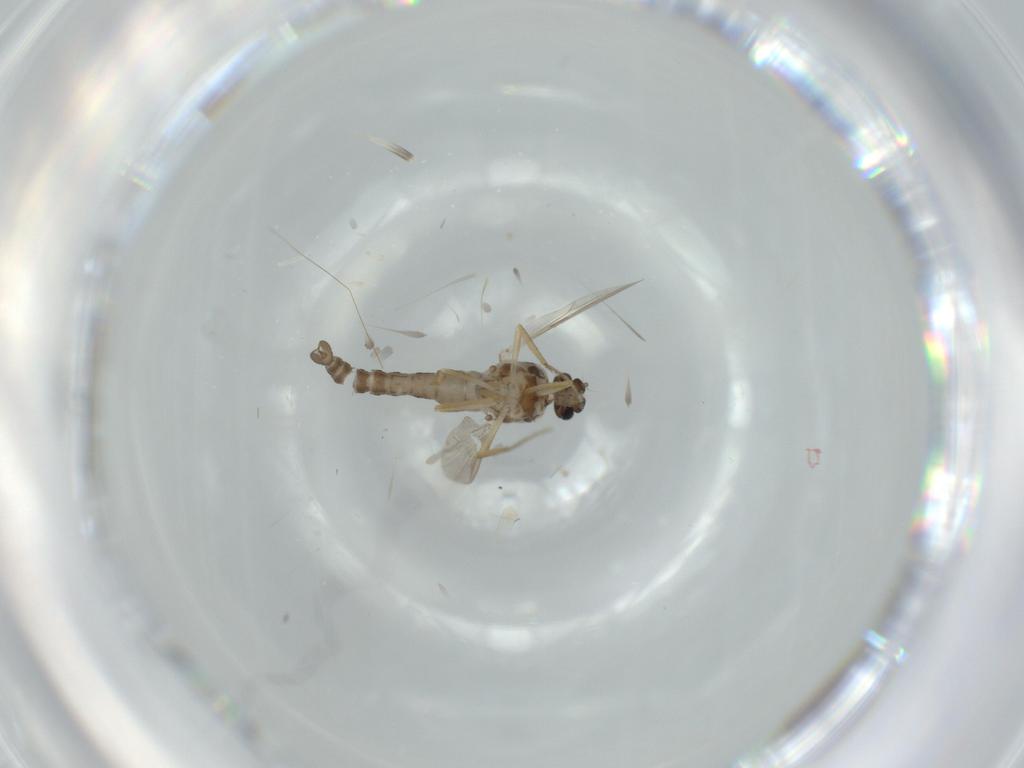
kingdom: Animalia
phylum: Arthropoda
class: Insecta
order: Diptera
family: Ceratopogonidae
